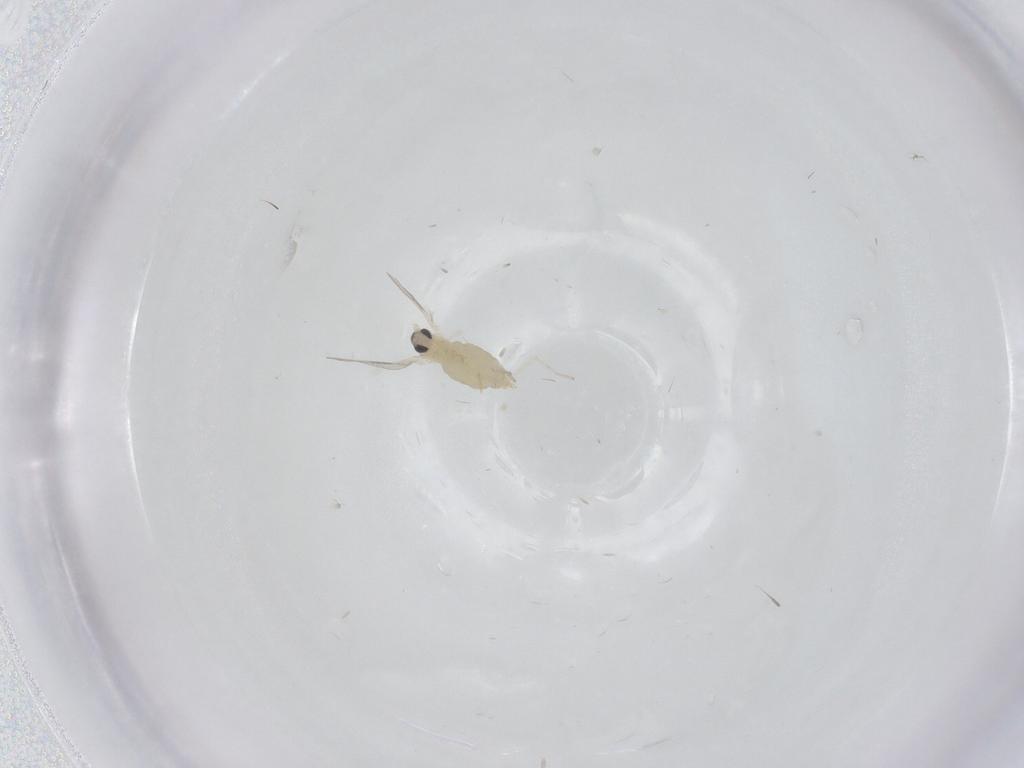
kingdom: Animalia
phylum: Arthropoda
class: Insecta
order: Diptera
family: Cecidomyiidae
